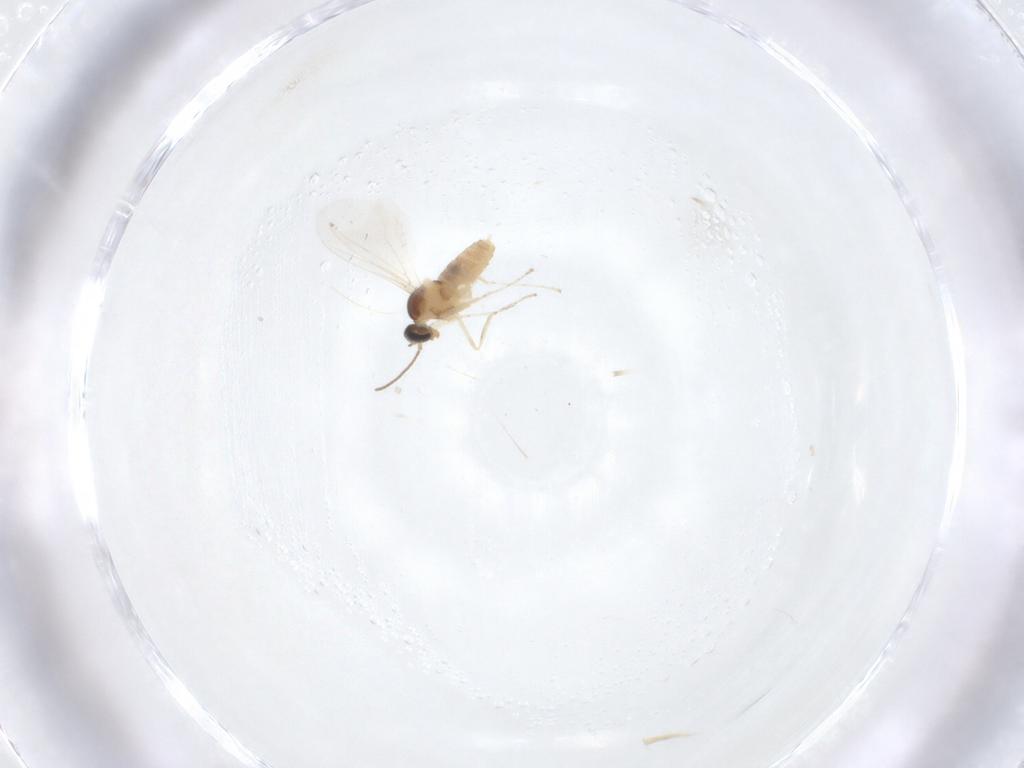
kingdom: Animalia
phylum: Arthropoda
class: Insecta
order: Diptera
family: Cecidomyiidae
